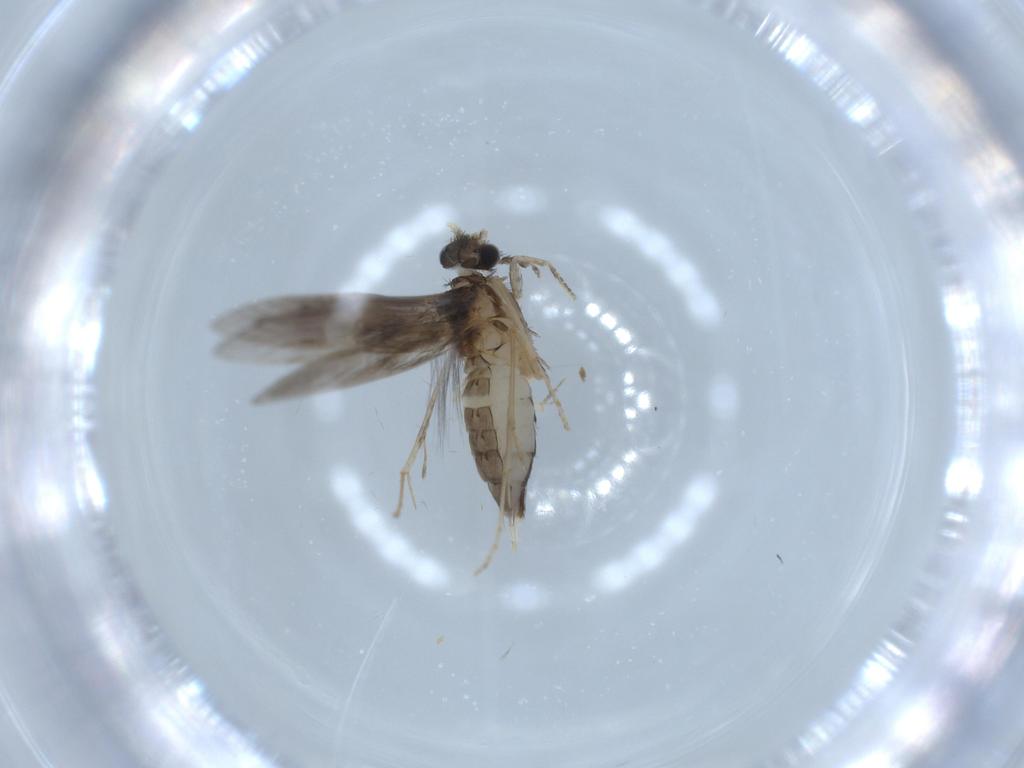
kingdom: Animalia
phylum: Arthropoda
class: Insecta
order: Trichoptera
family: Hydroptilidae
